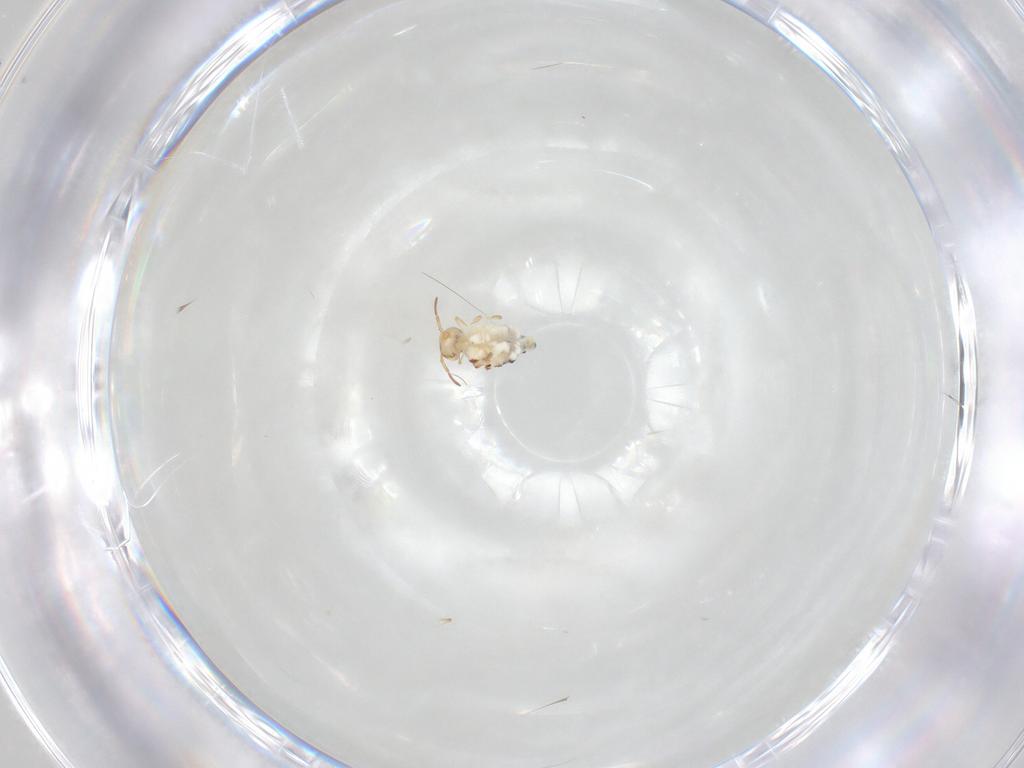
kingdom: Animalia
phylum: Arthropoda
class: Collembola
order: Symphypleona
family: Bourletiellidae
